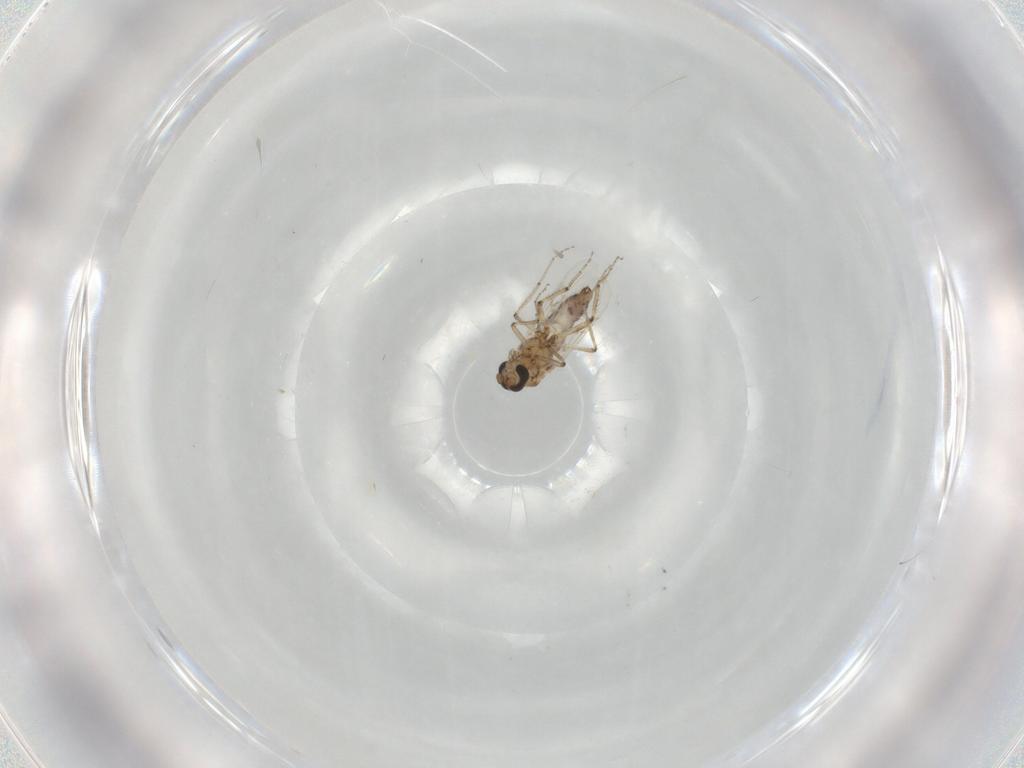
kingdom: Animalia
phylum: Arthropoda
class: Insecta
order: Diptera
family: Ceratopogonidae
